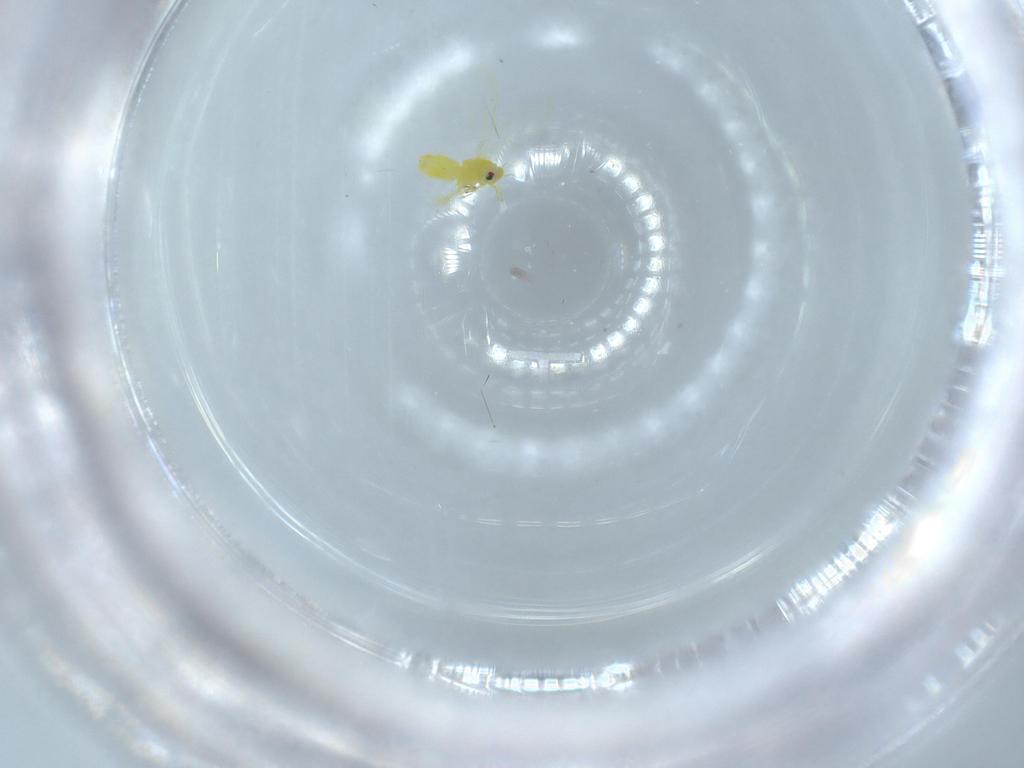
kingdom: Animalia
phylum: Arthropoda
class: Insecta
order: Hemiptera
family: Aleyrodidae
